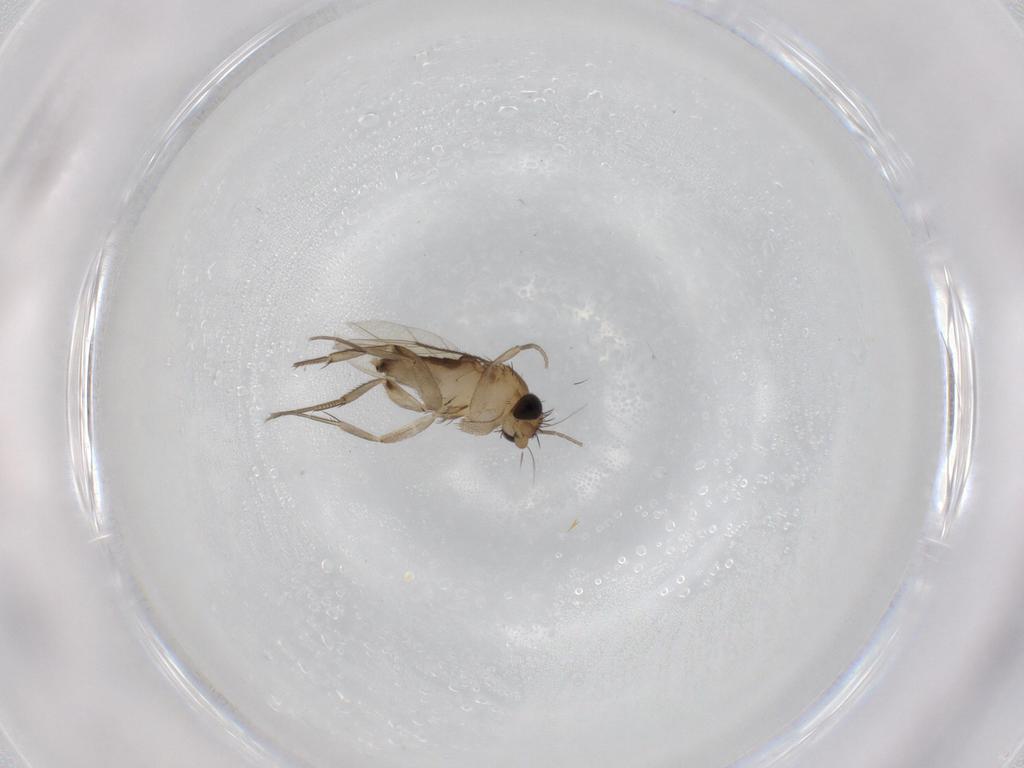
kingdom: Animalia
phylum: Arthropoda
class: Insecta
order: Diptera
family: Phoridae
